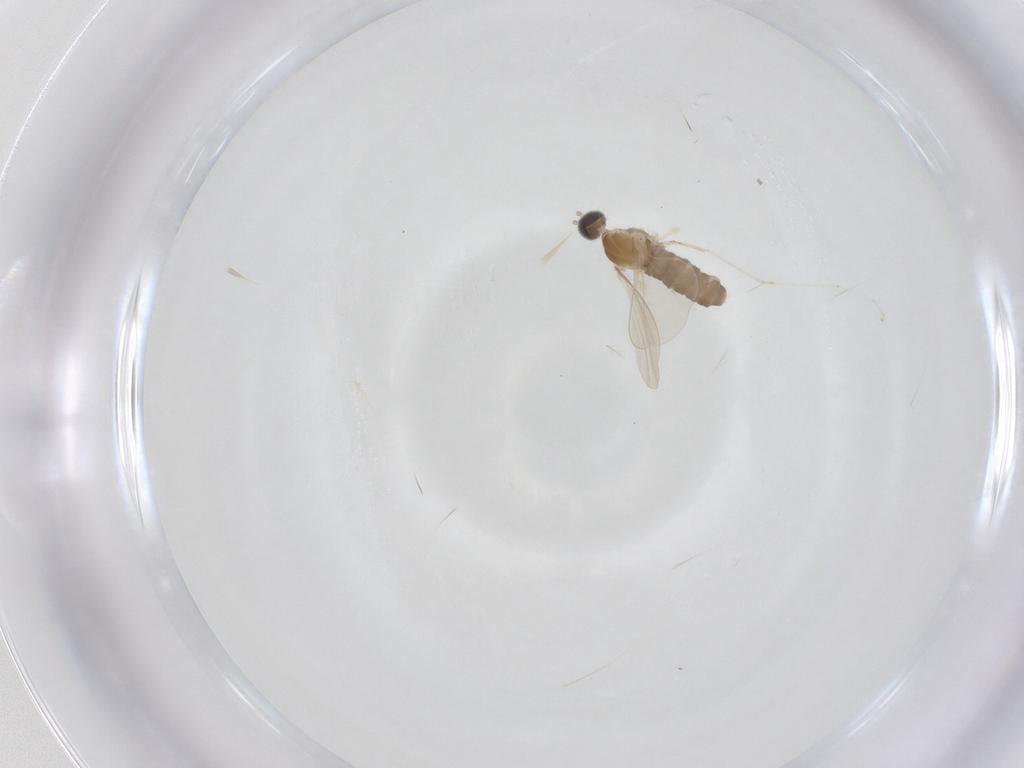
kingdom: Animalia
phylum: Arthropoda
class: Insecta
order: Diptera
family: Cecidomyiidae
